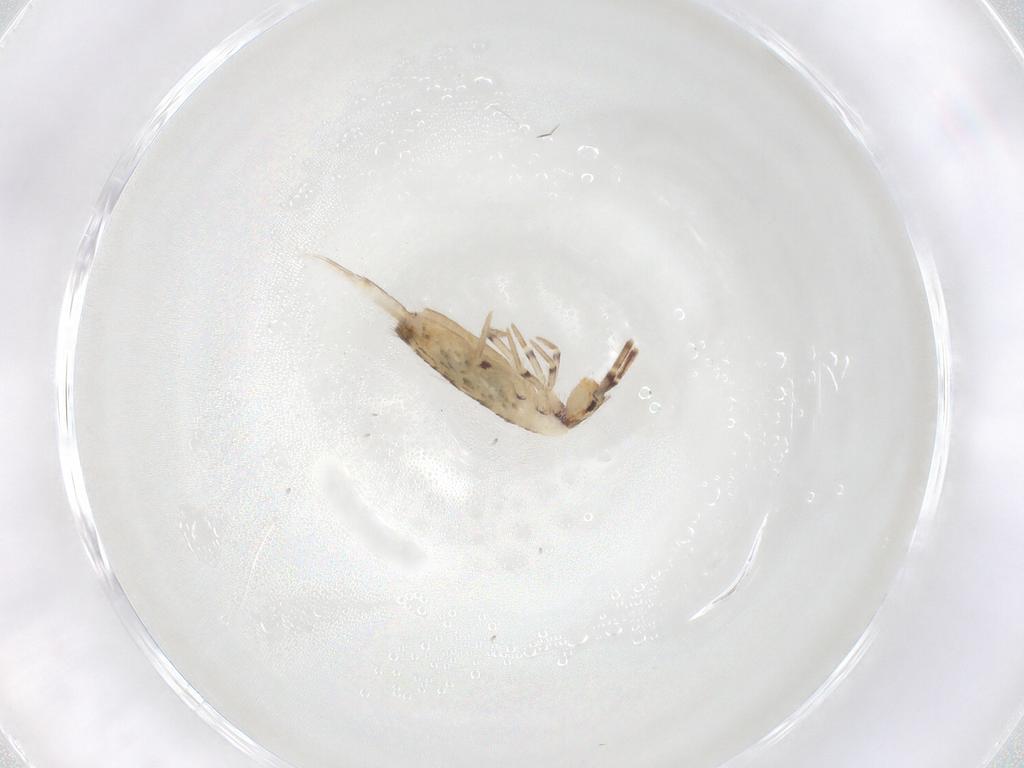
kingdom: Animalia
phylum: Arthropoda
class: Collembola
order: Entomobryomorpha
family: Entomobryidae
